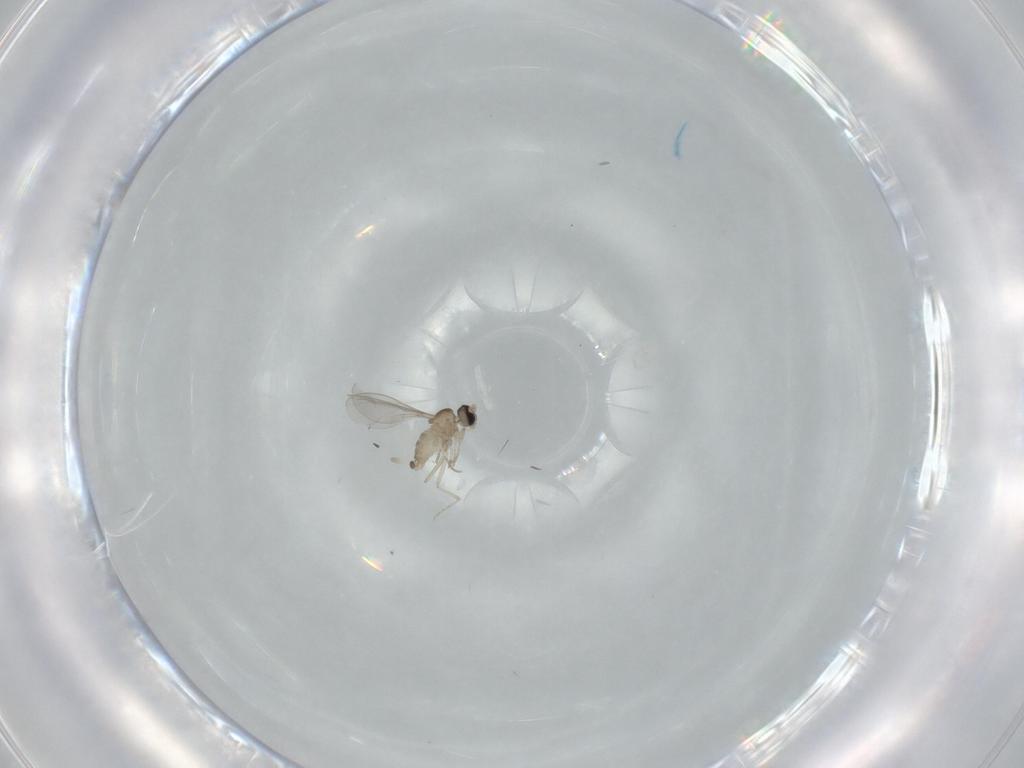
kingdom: Animalia
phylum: Arthropoda
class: Insecta
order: Diptera
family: Cecidomyiidae
